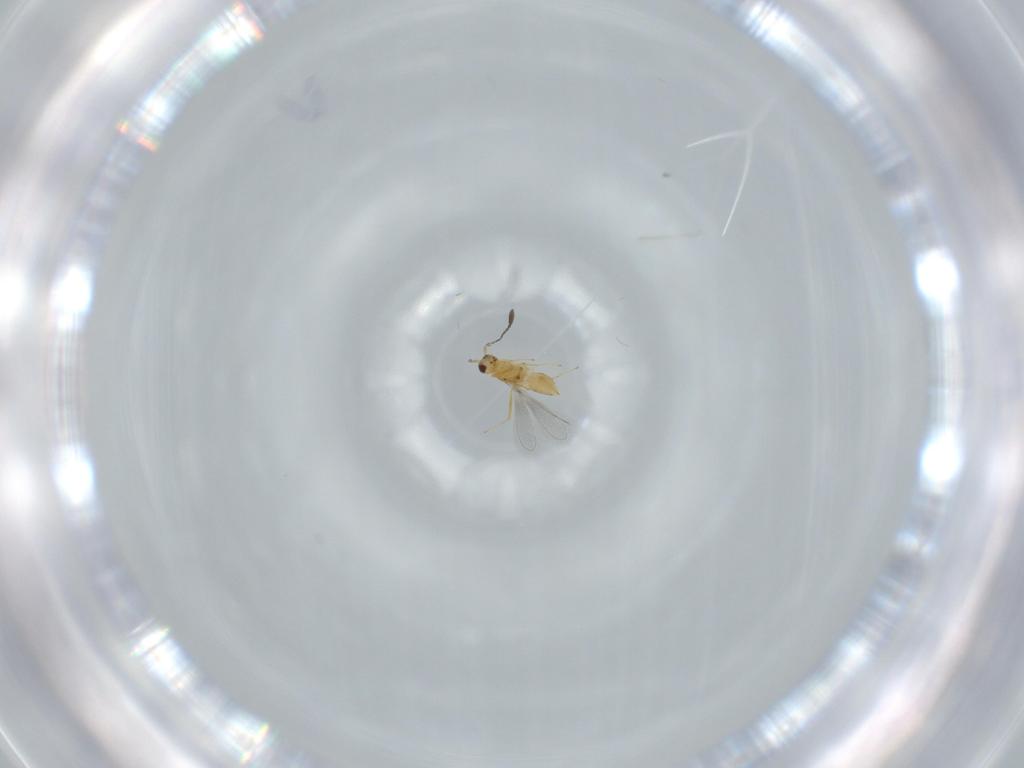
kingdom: Animalia
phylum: Arthropoda
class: Insecta
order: Hymenoptera
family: Mymaridae
